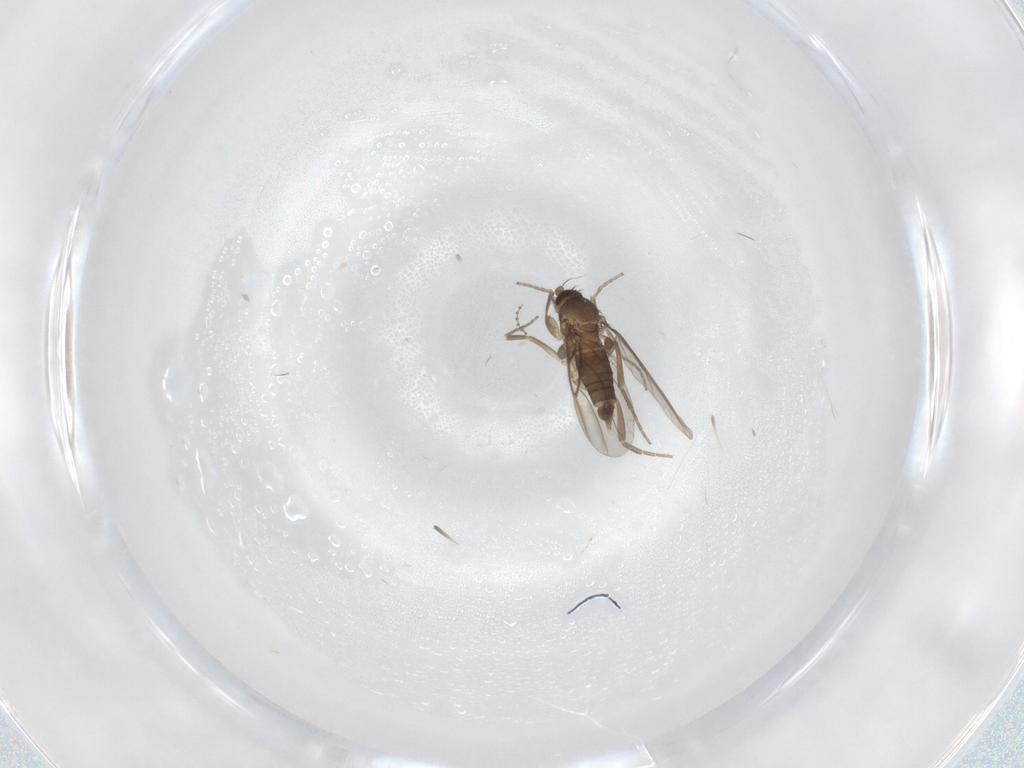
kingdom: Animalia
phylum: Arthropoda
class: Insecta
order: Diptera
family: Phoridae
